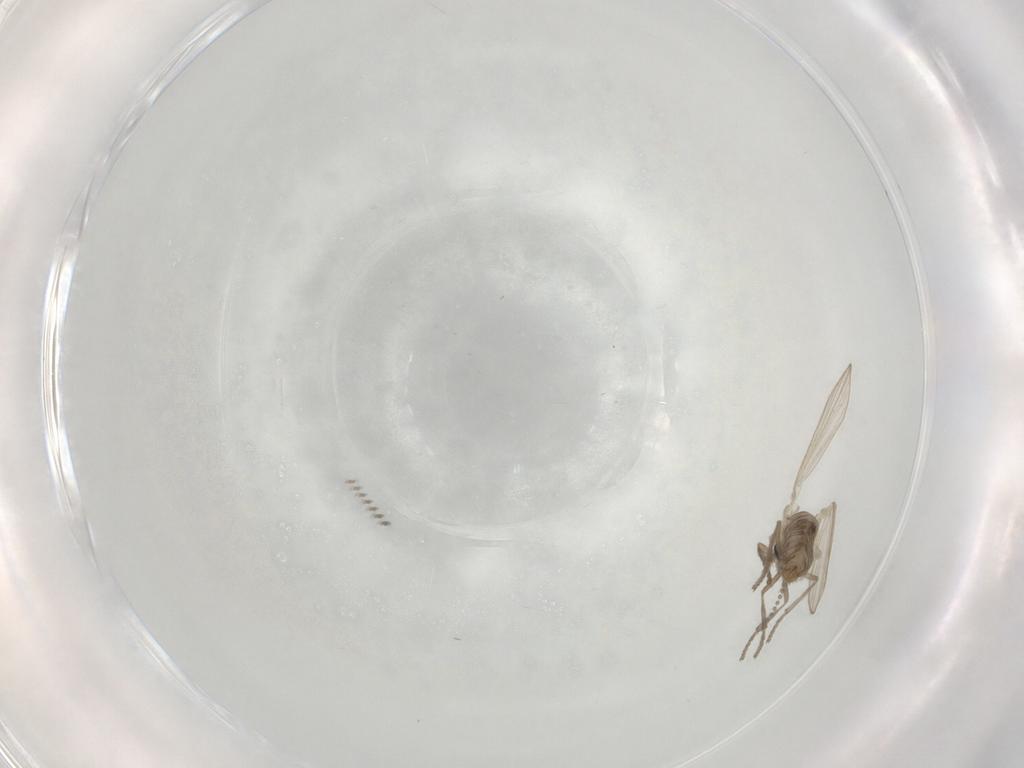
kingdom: Animalia
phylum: Arthropoda
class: Insecta
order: Diptera
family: Psychodidae
